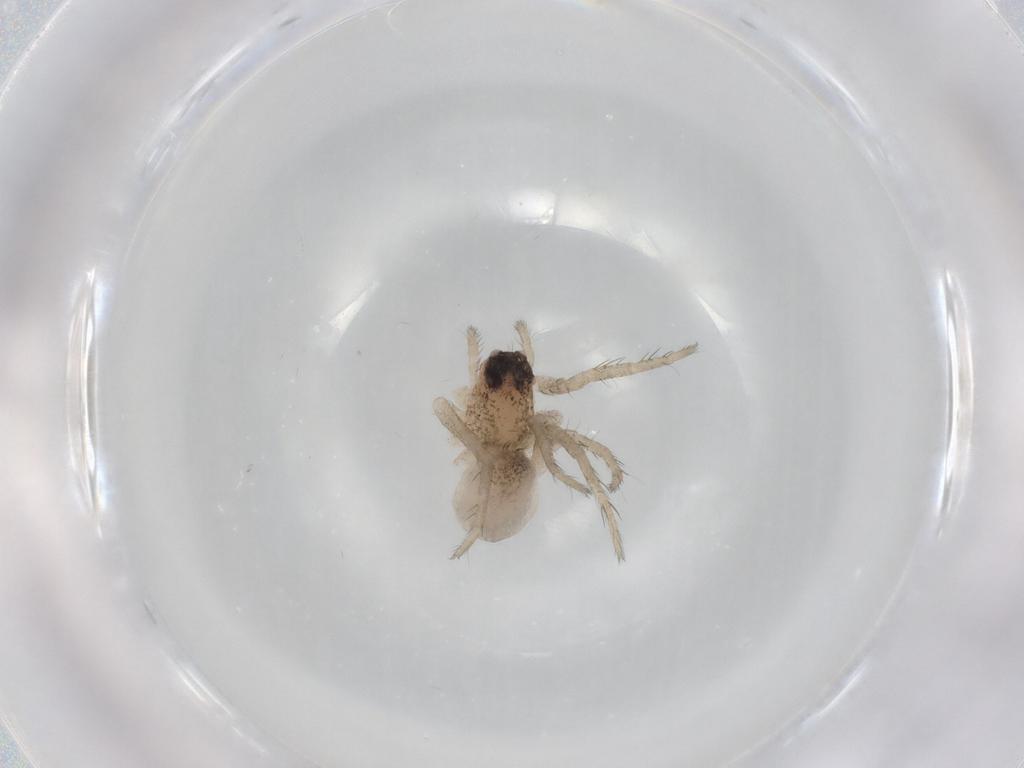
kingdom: Animalia
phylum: Arthropoda
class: Arachnida
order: Araneae
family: Lycosidae
